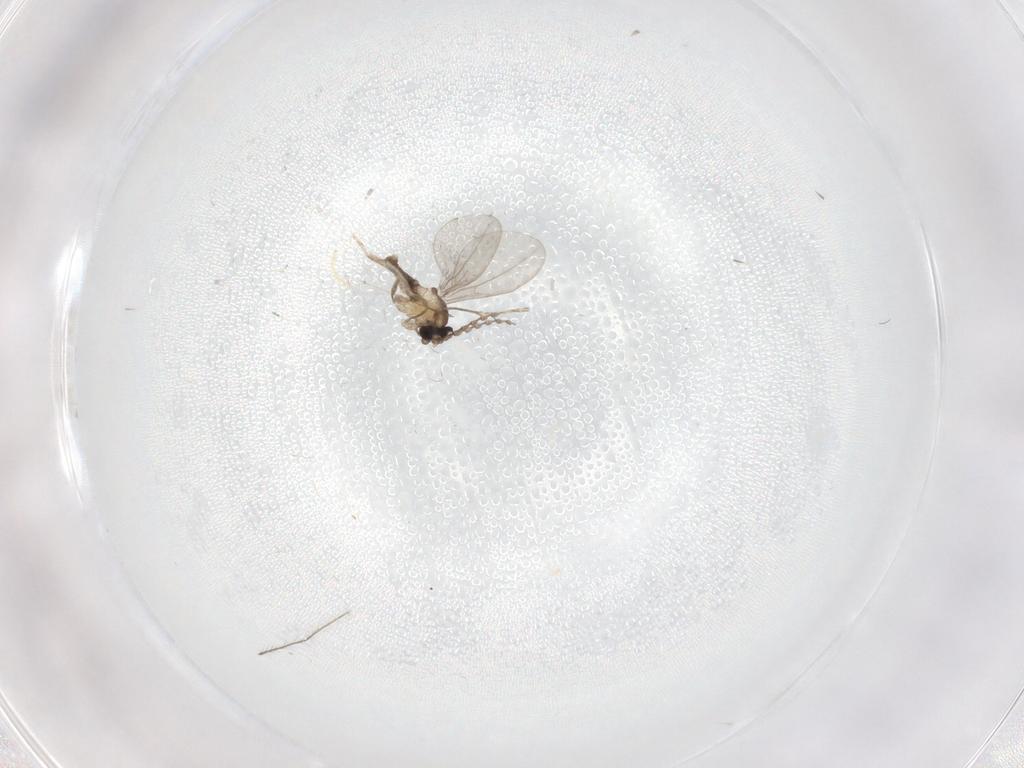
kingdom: Animalia
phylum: Arthropoda
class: Insecta
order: Diptera
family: Chironomidae
